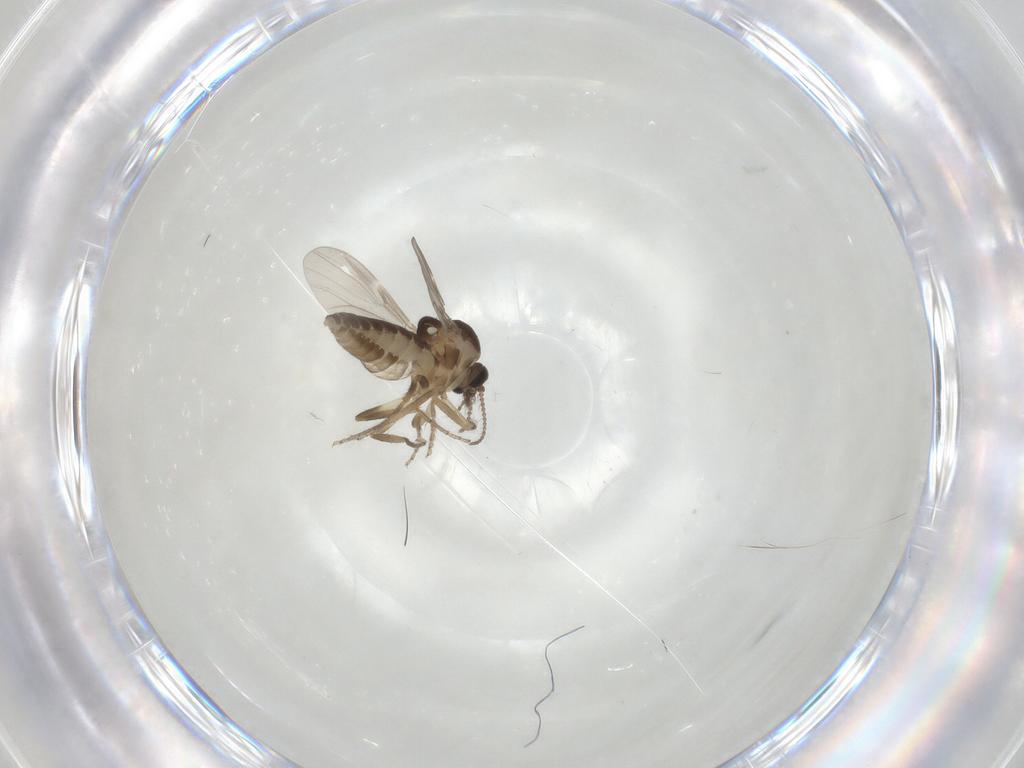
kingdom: Animalia
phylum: Arthropoda
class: Insecta
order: Diptera
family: Ceratopogonidae
